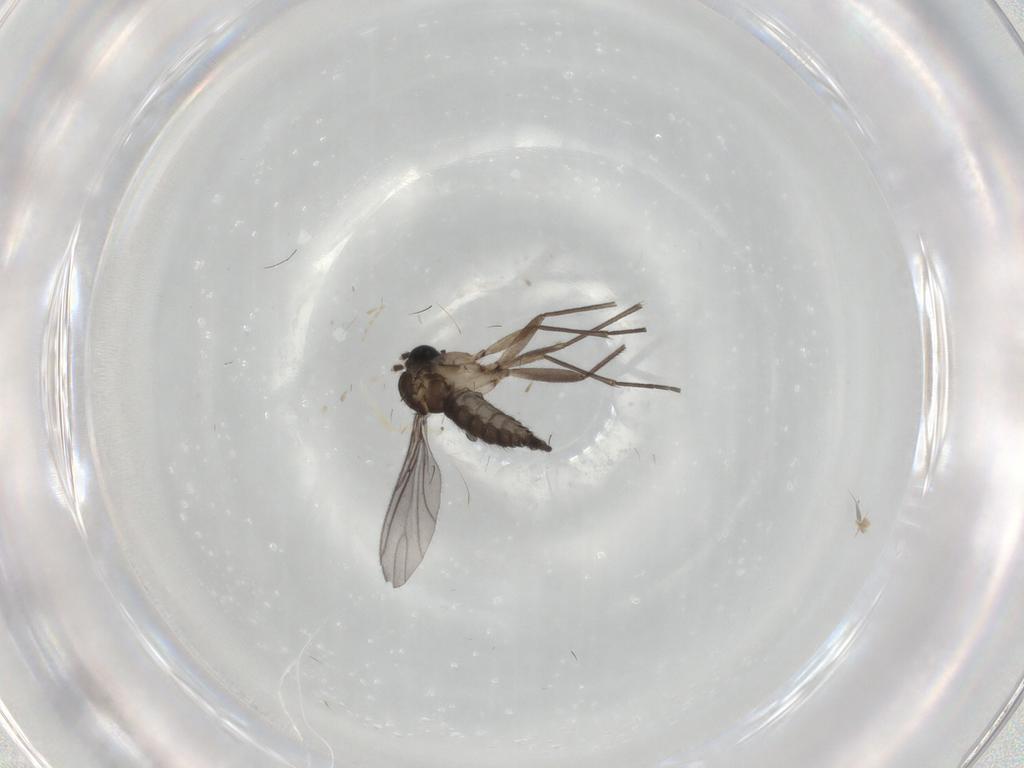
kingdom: Animalia
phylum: Arthropoda
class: Insecta
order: Diptera
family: Sciaridae
